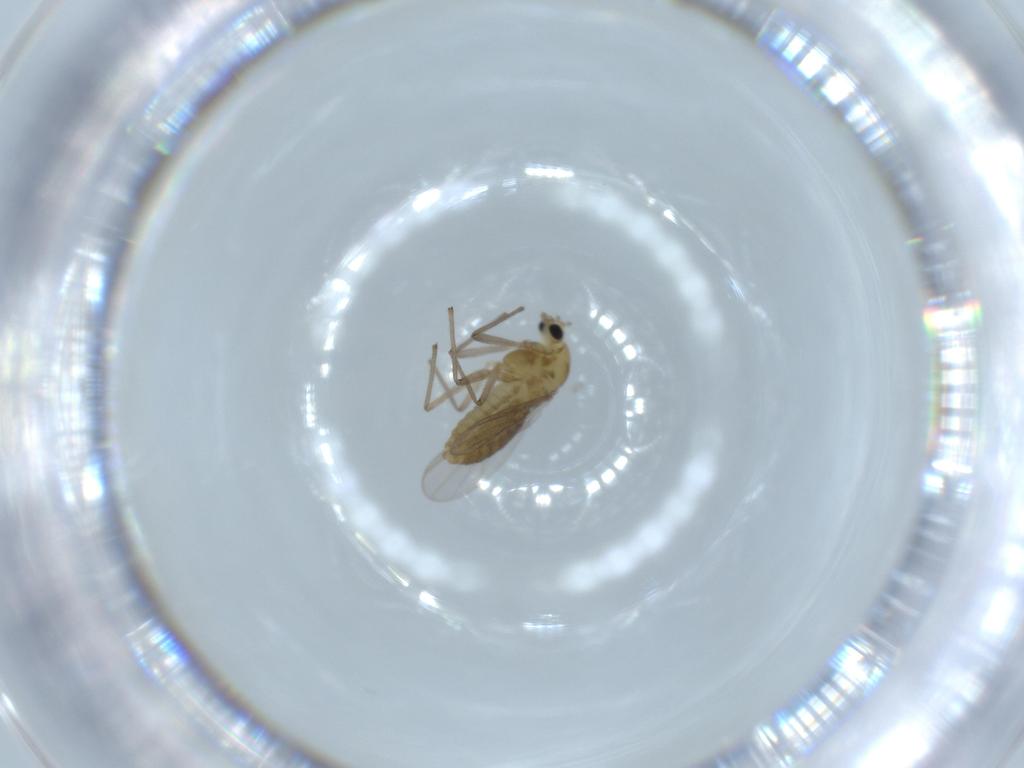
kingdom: Animalia
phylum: Arthropoda
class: Insecta
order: Diptera
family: Chironomidae
